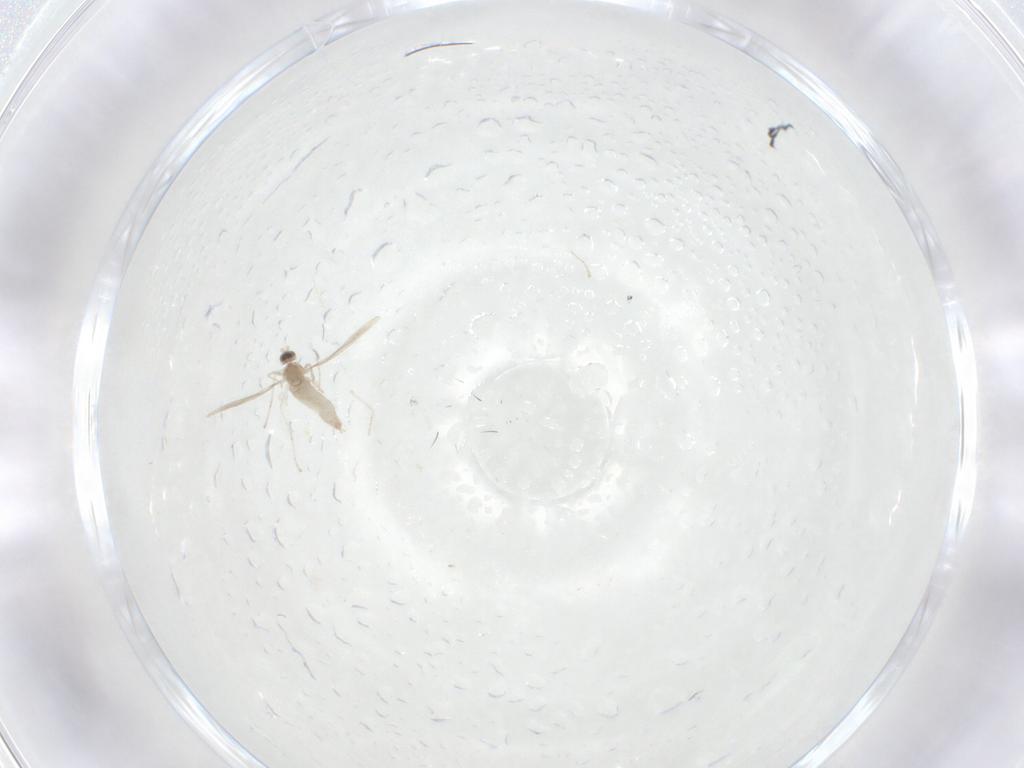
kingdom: Animalia
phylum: Arthropoda
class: Insecta
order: Diptera
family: Cecidomyiidae
